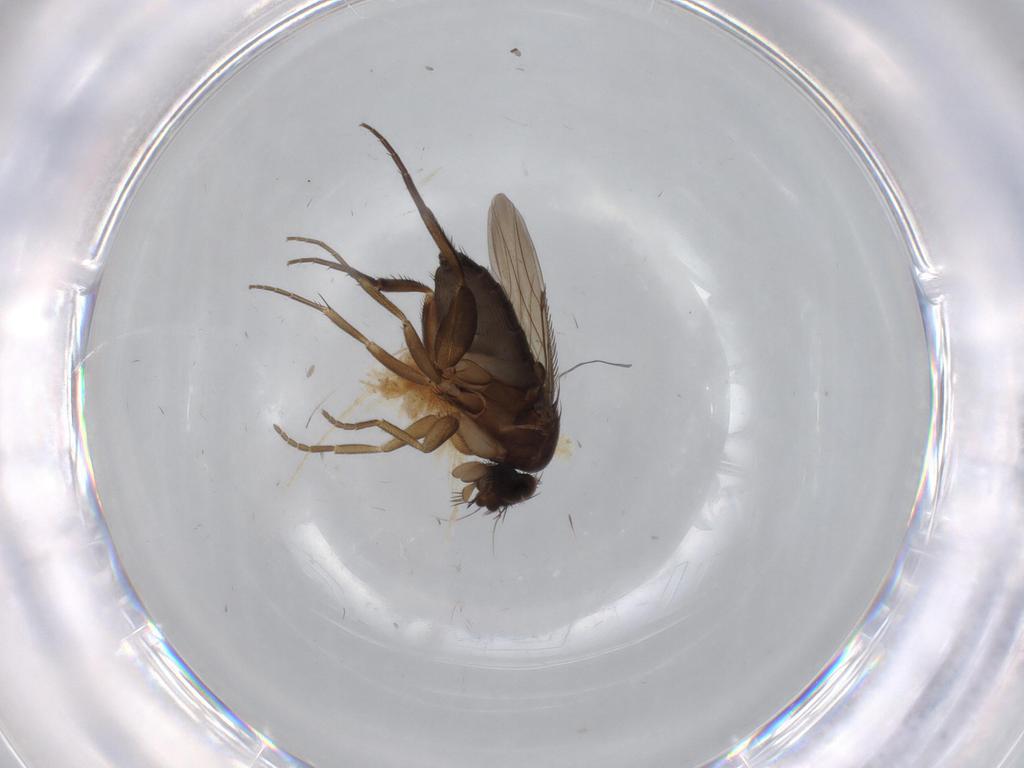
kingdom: Animalia
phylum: Arthropoda
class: Insecta
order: Diptera
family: Phoridae
